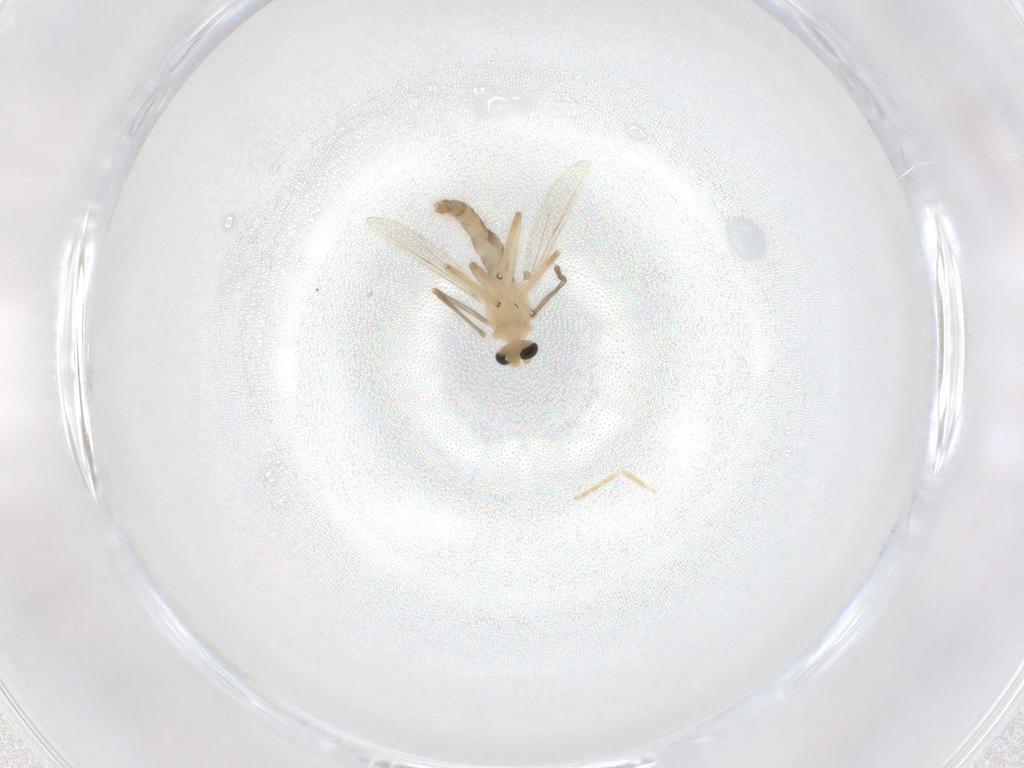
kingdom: Animalia
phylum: Arthropoda
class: Insecta
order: Diptera
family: Chironomidae
